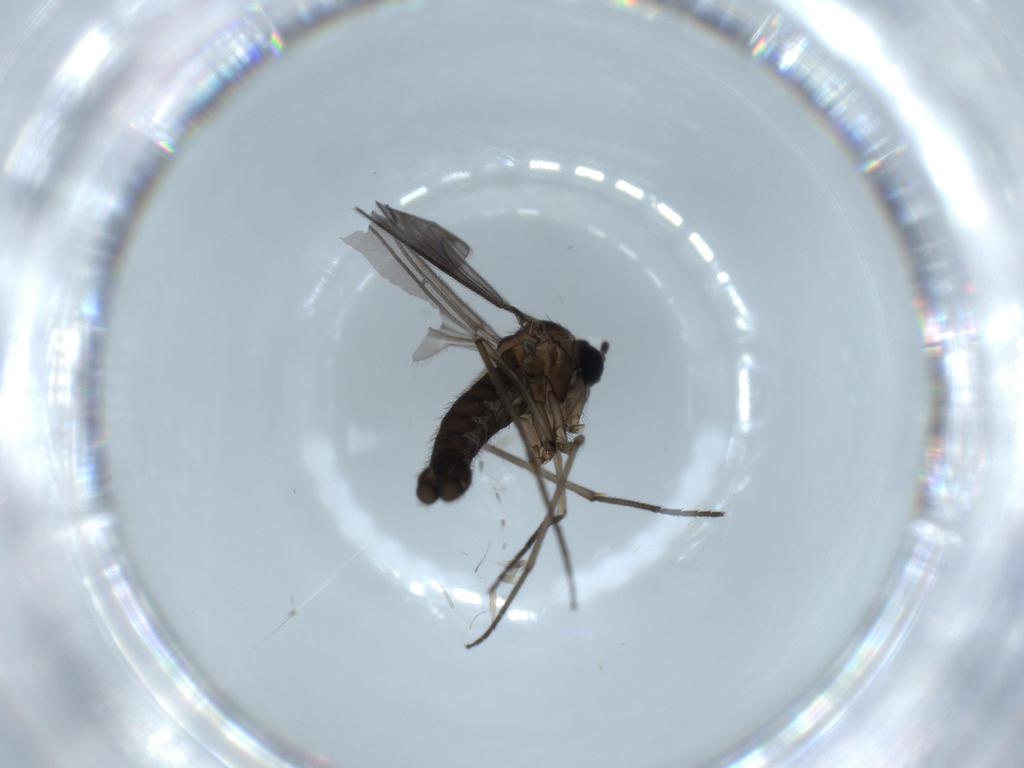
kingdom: Animalia
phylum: Arthropoda
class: Insecta
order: Diptera
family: Sciaridae
